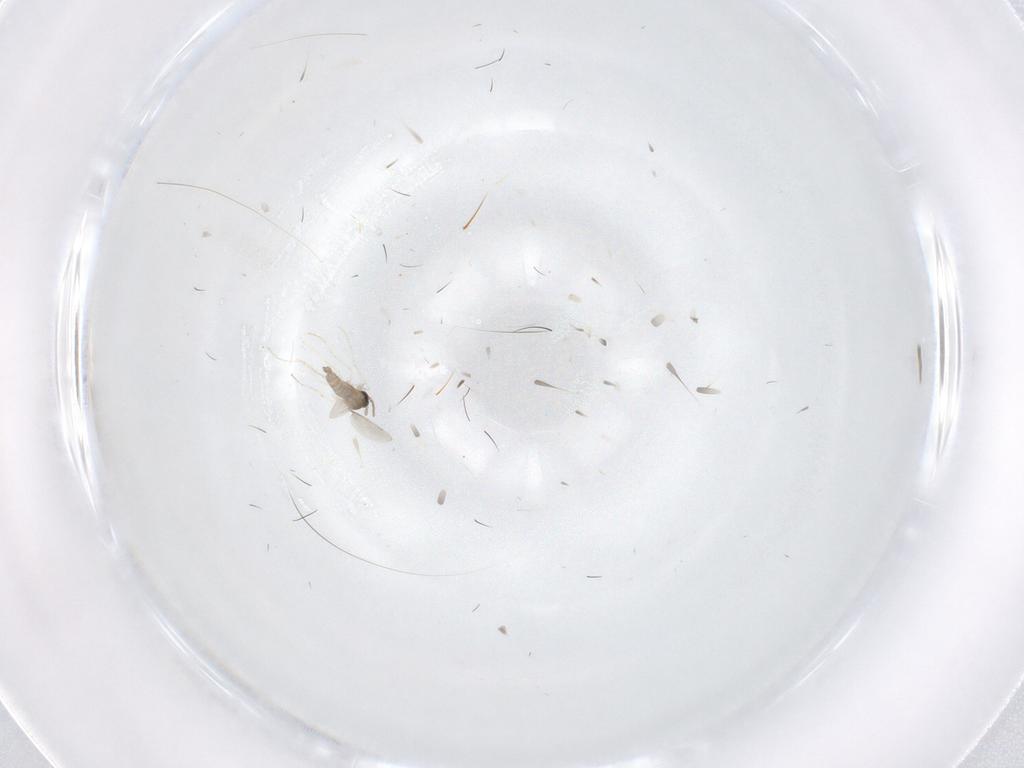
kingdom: Animalia
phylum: Arthropoda
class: Insecta
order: Diptera
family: Sciaridae
